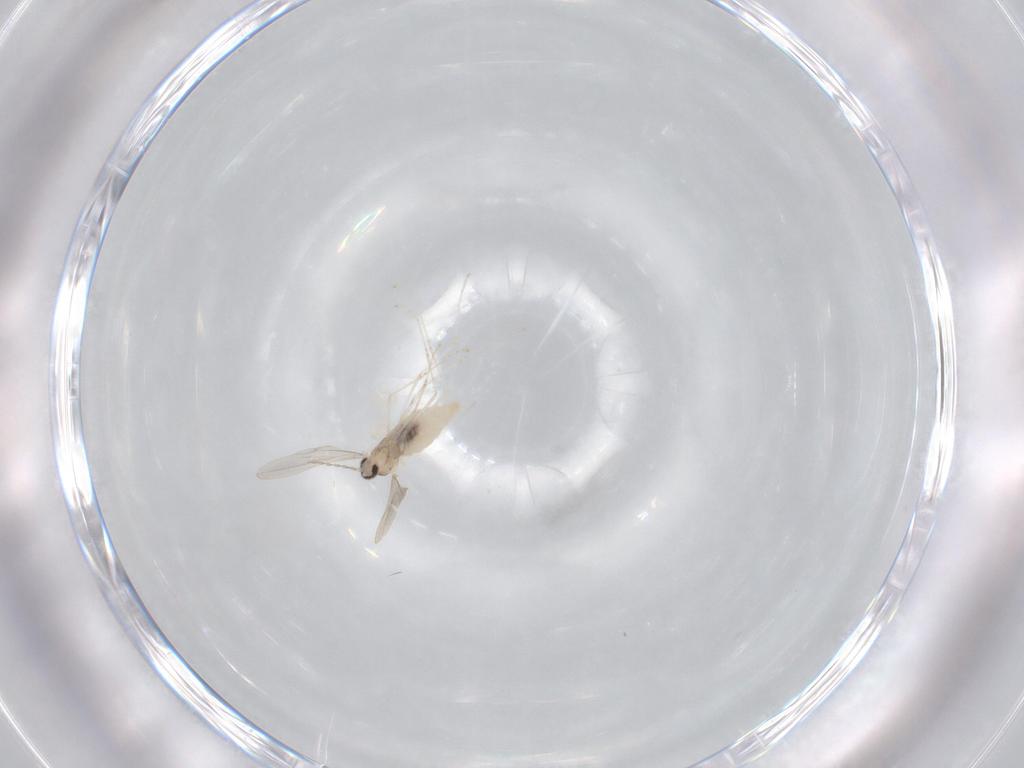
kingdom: Animalia
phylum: Arthropoda
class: Insecta
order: Diptera
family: Cecidomyiidae
